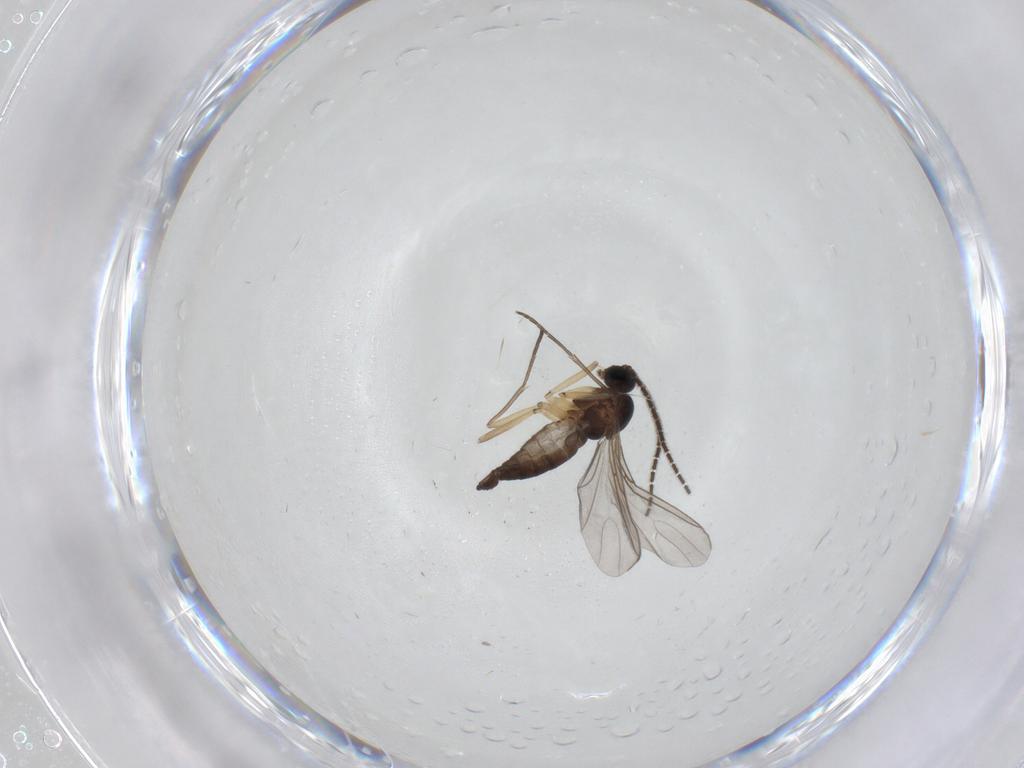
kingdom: Animalia
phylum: Arthropoda
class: Insecta
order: Diptera
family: Sciaridae
